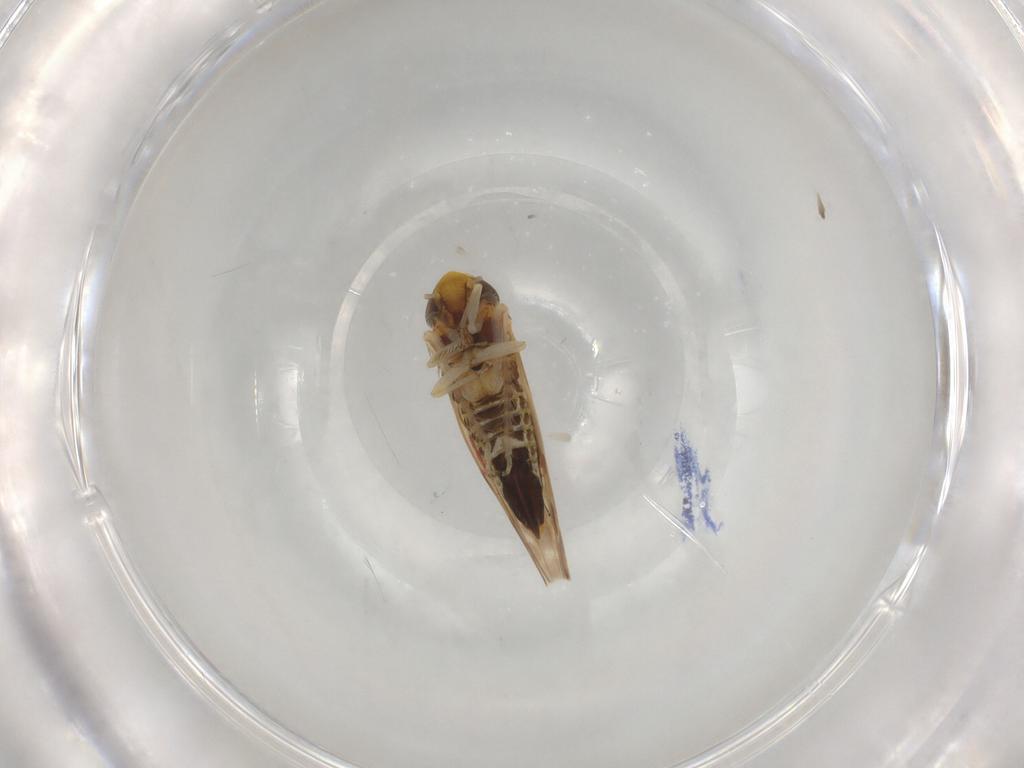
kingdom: Animalia
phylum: Arthropoda
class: Insecta
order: Hemiptera
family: Cicadellidae
